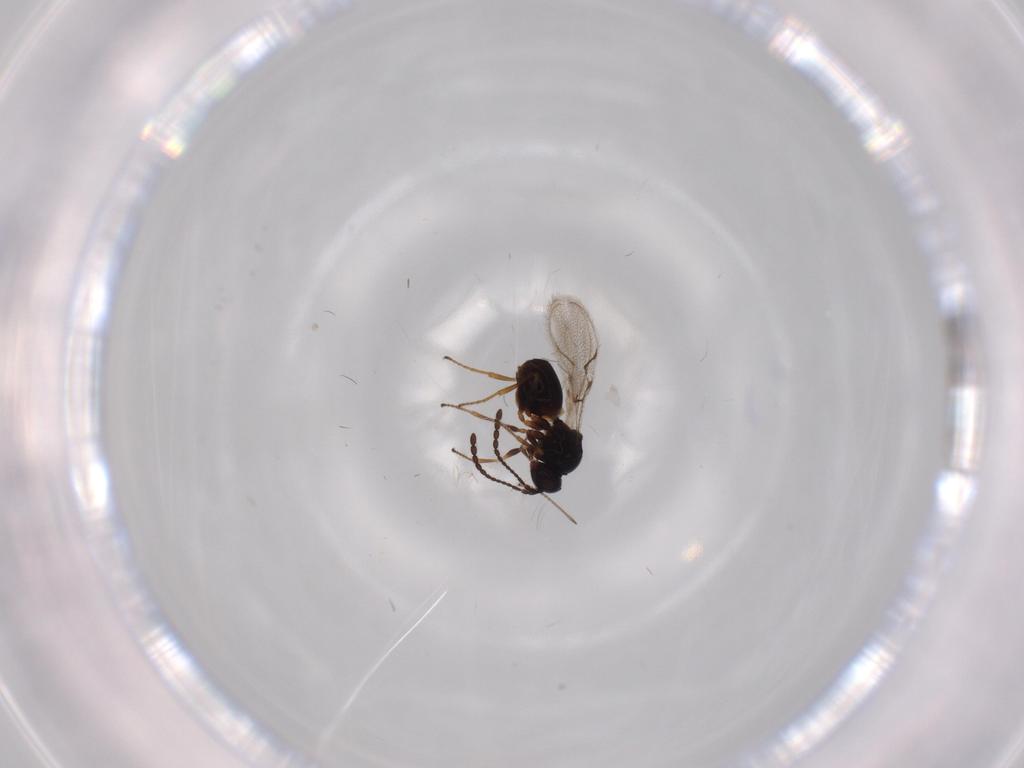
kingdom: Animalia
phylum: Arthropoda
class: Insecta
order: Hymenoptera
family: Figitidae
